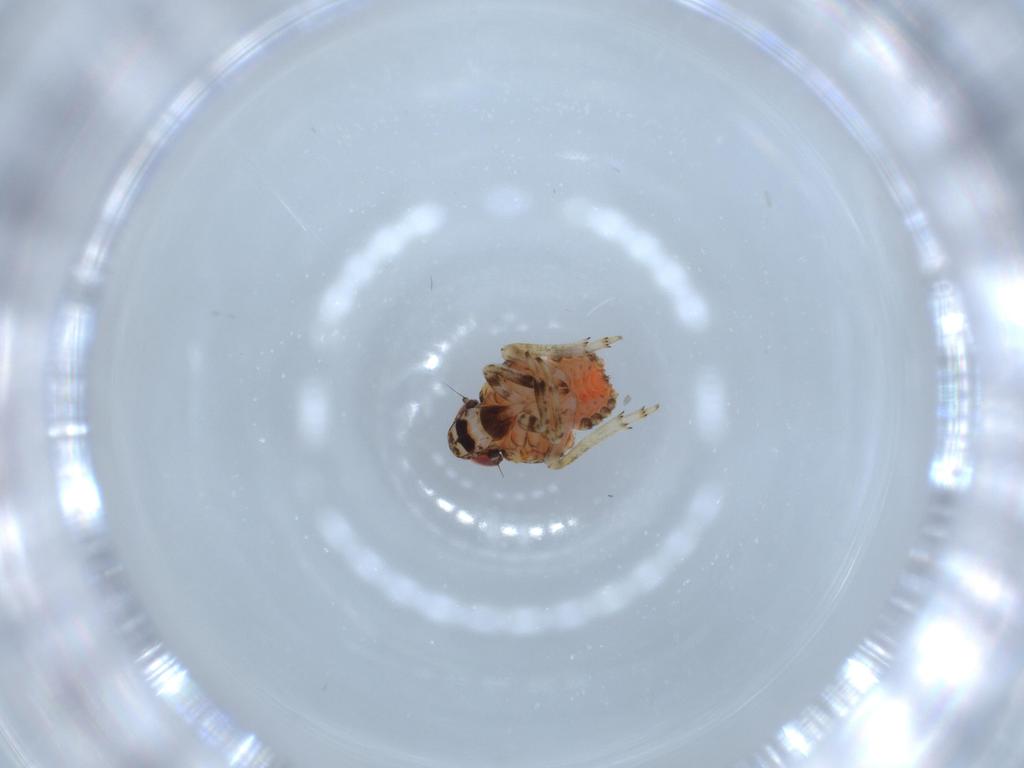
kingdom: Animalia
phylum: Arthropoda
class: Insecta
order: Hemiptera
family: Issidae
